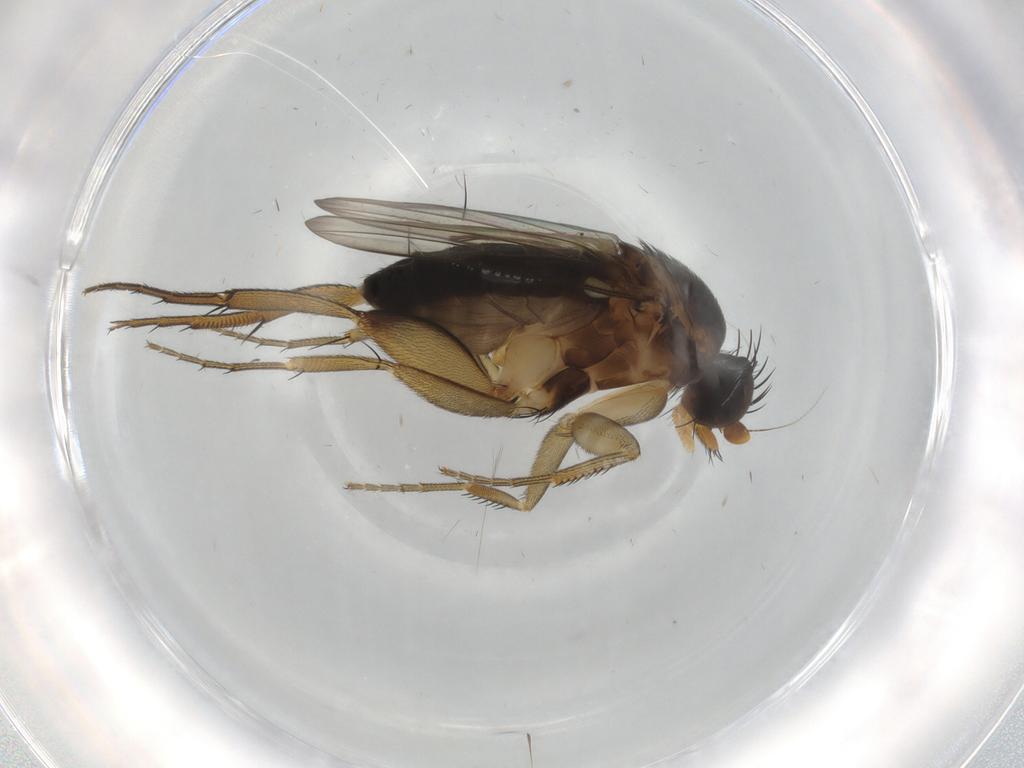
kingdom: Animalia
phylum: Arthropoda
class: Insecta
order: Diptera
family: Phoridae
